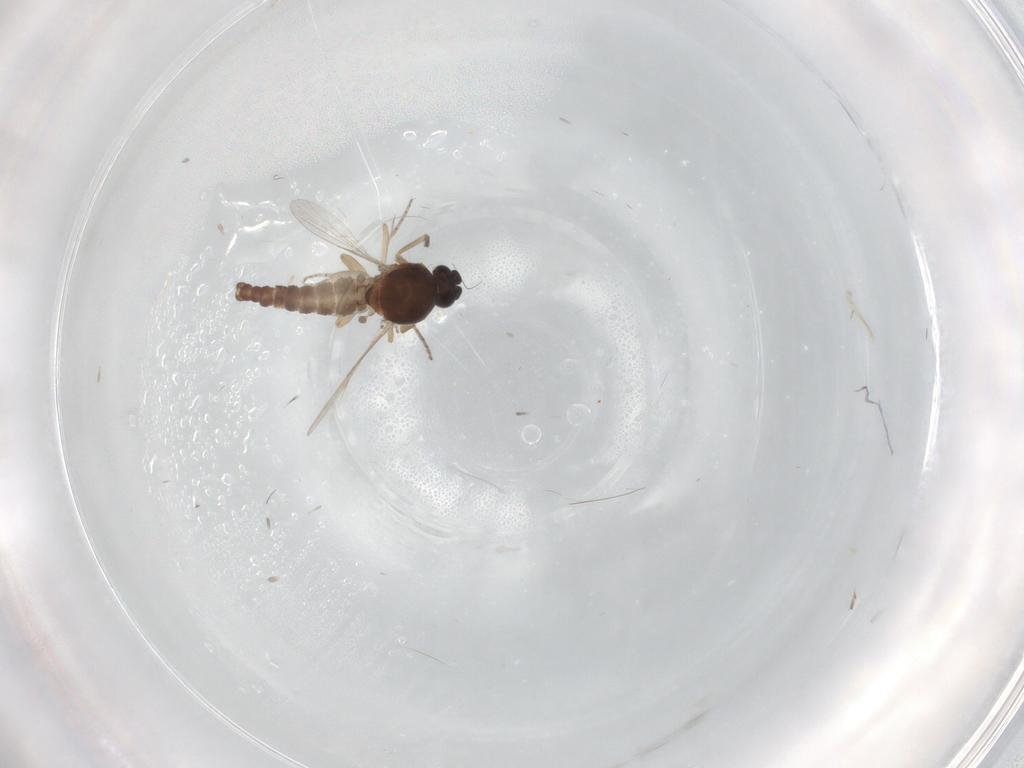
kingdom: Animalia
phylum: Arthropoda
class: Insecta
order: Diptera
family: Ceratopogonidae
